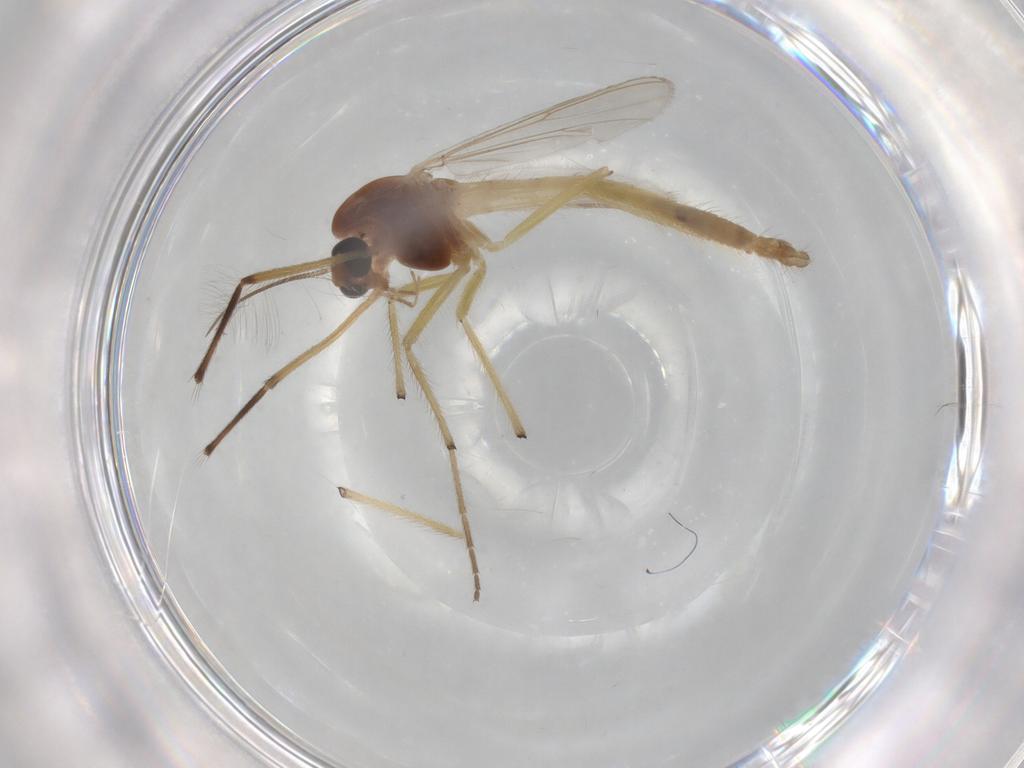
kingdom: Animalia
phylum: Arthropoda
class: Insecta
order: Diptera
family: Chironomidae
